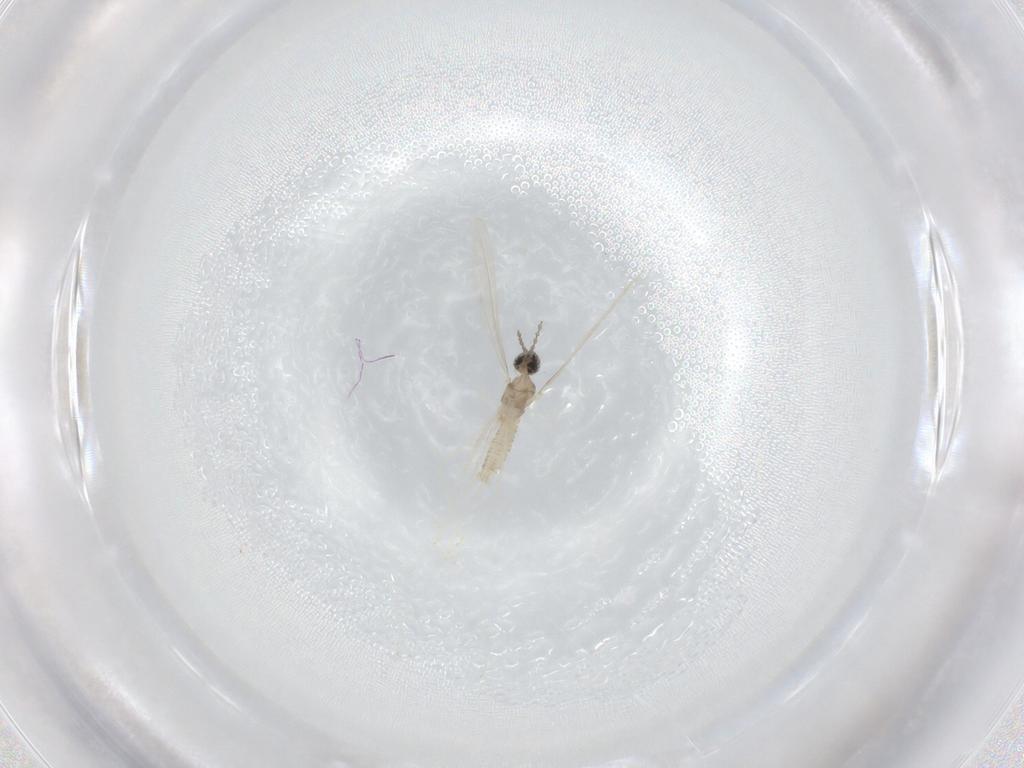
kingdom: Animalia
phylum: Arthropoda
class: Insecta
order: Diptera
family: Cecidomyiidae
